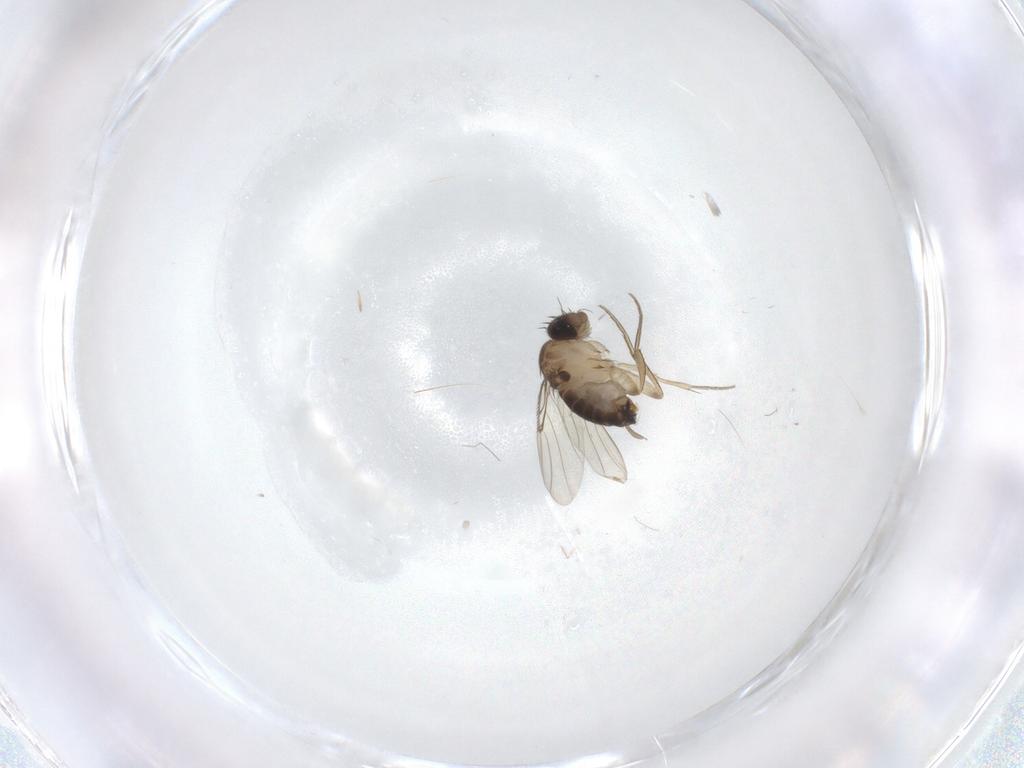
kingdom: Animalia
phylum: Arthropoda
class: Insecta
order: Diptera
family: Phoridae
